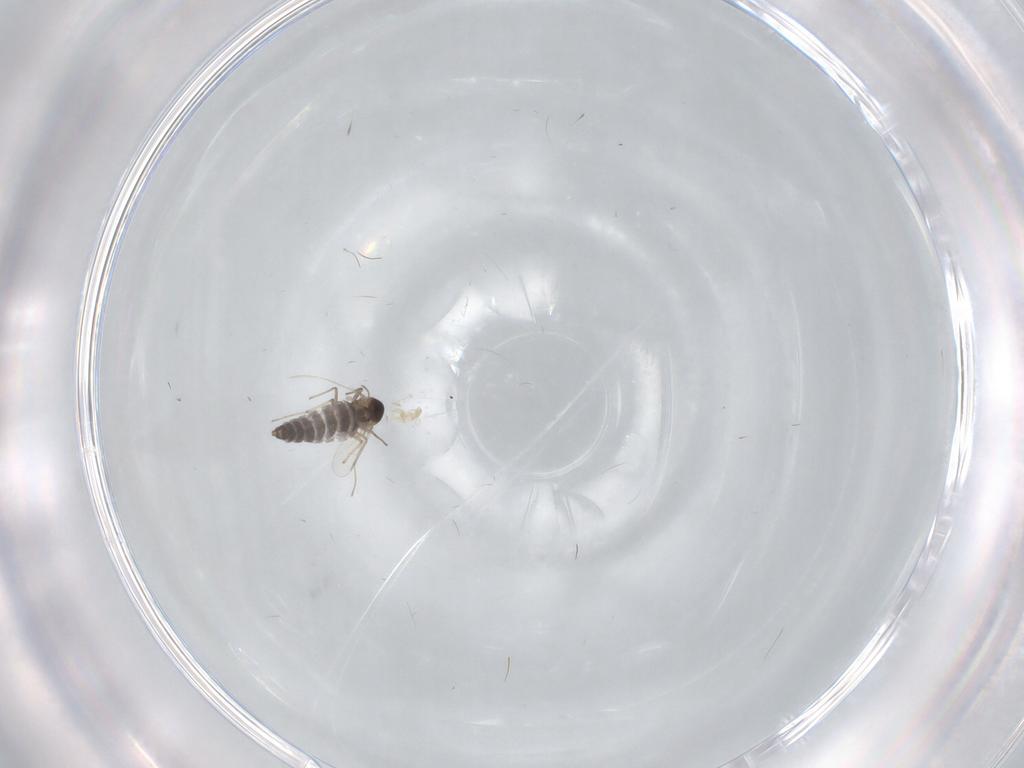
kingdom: Animalia
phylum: Arthropoda
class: Insecta
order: Diptera
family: Chironomidae
